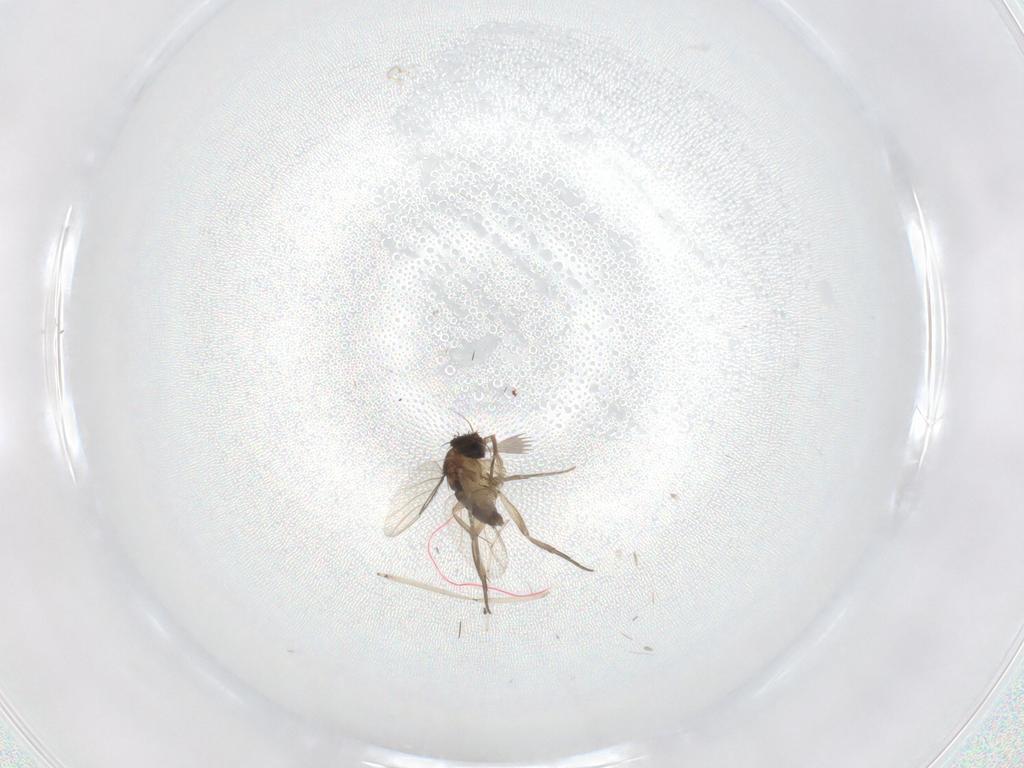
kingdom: Animalia
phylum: Arthropoda
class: Insecta
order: Diptera
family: Phoridae
